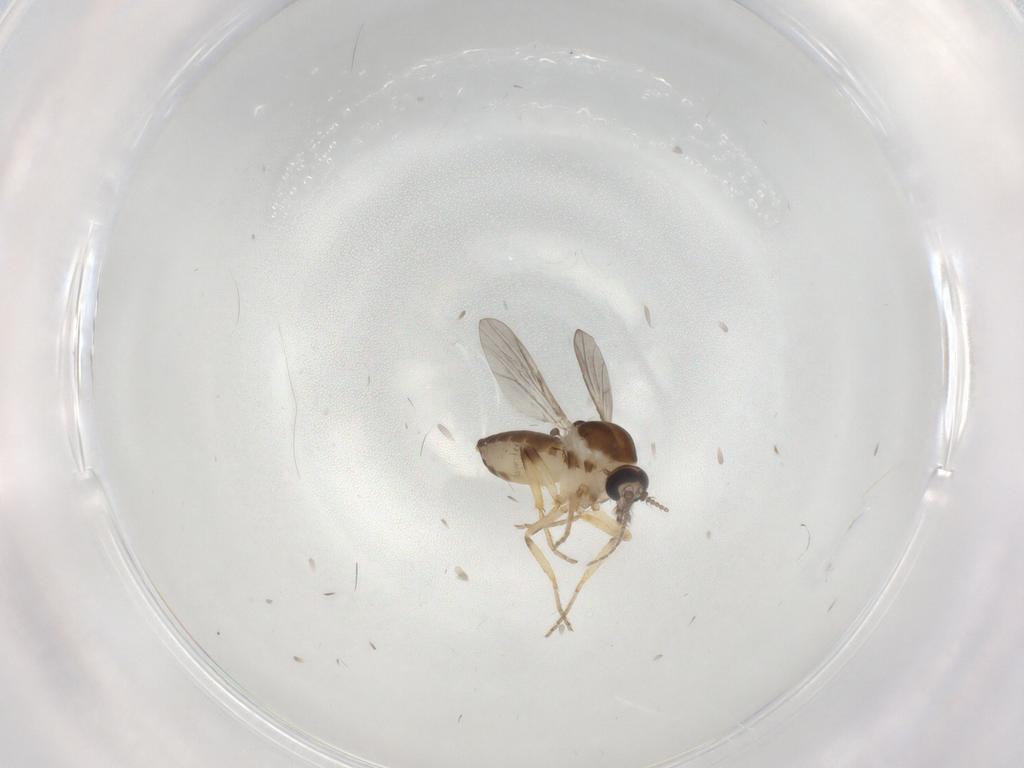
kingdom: Animalia
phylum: Arthropoda
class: Insecta
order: Diptera
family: Ceratopogonidae
